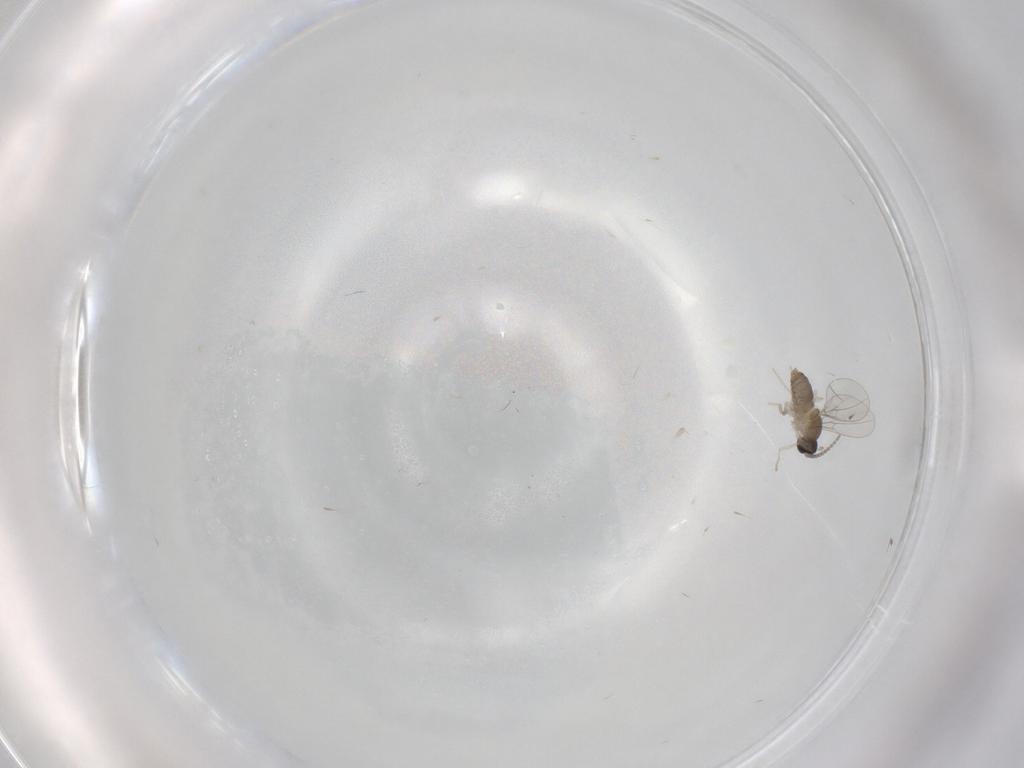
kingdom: Animalia
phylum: Arthropoda
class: Insecta
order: Diptera
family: Cecidomyiidae
